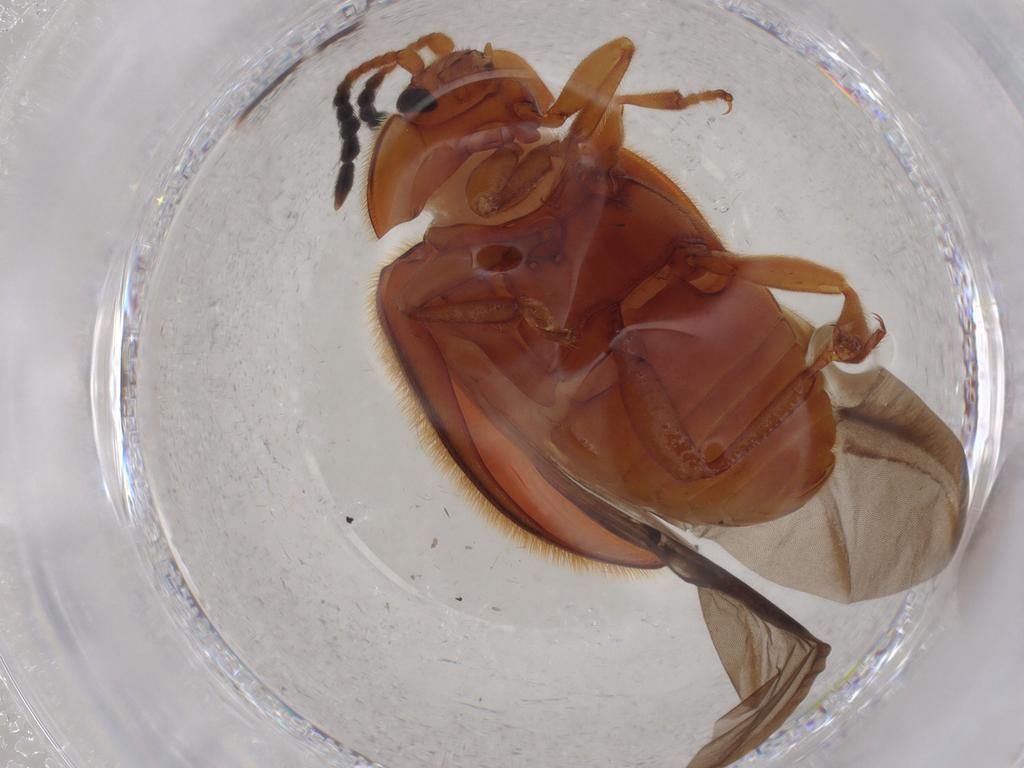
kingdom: Animalia
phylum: Arthropoda
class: Insecta
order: Coleoptera
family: Endomychidae
